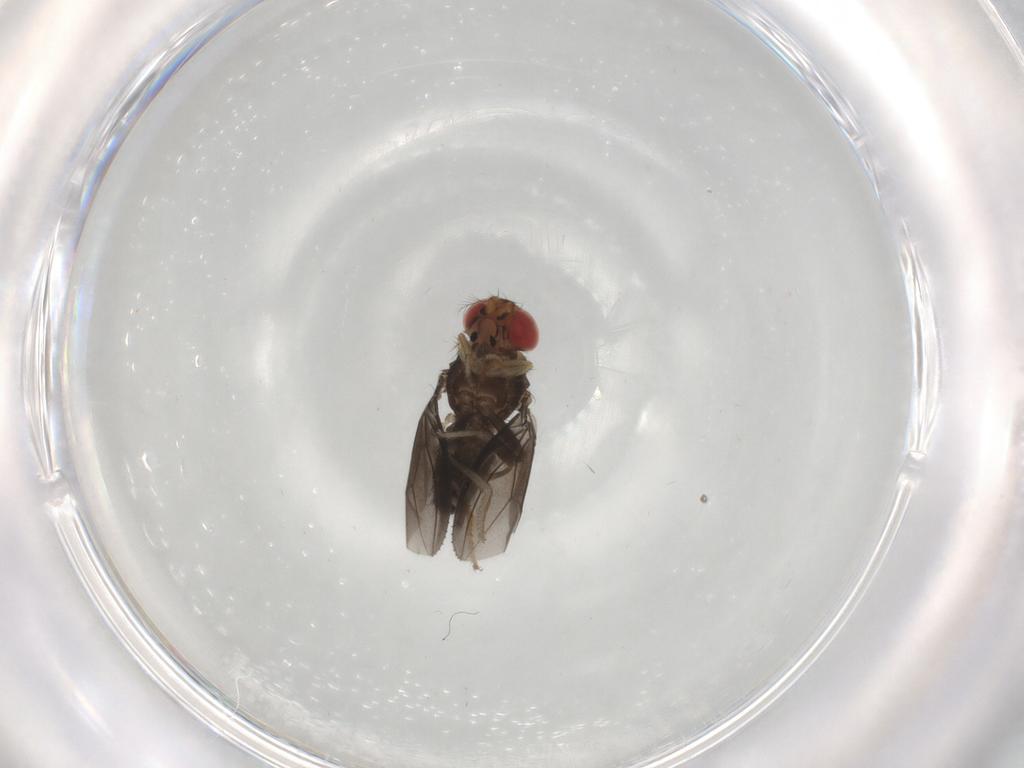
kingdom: Animalia
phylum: Arthropoda
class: Insecta
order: Diptera
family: Drosophilidae
